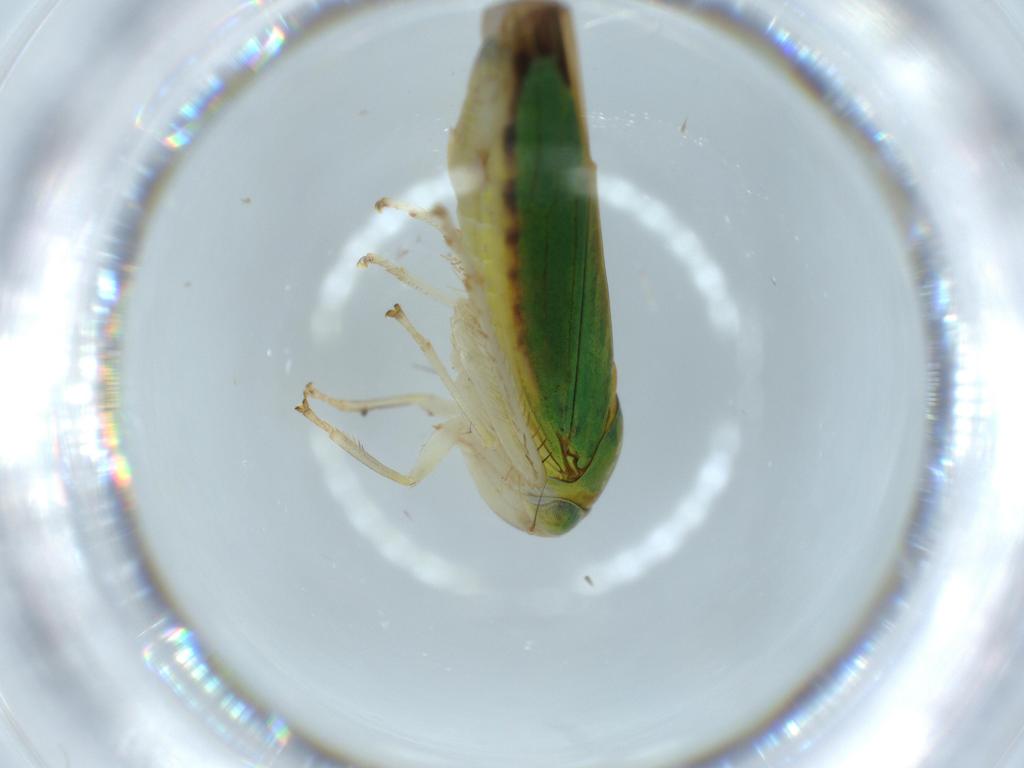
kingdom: Animalia
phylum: Arthropoda
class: Insecta
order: Hemiptera
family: Cicadellidae
